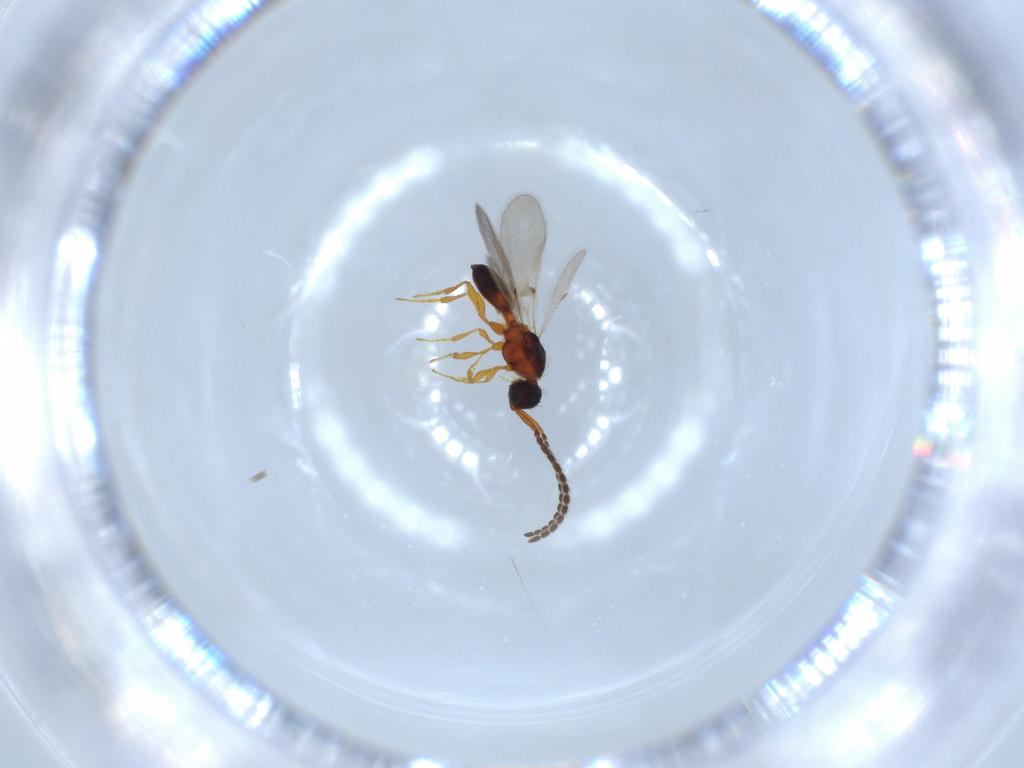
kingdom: Animalia
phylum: Arthropoda
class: Insecta
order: Hymenoptera
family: Diapriidae
